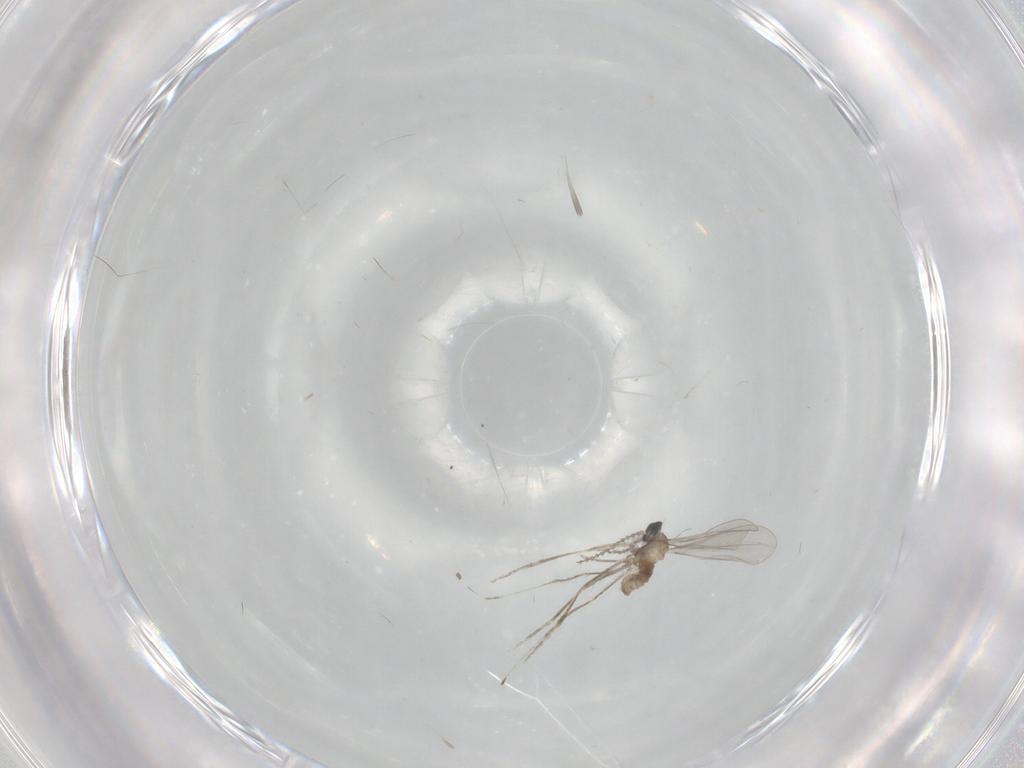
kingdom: Animalia
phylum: Arthropoda
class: Insecta
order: Diptera
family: Cecidomyiidae
